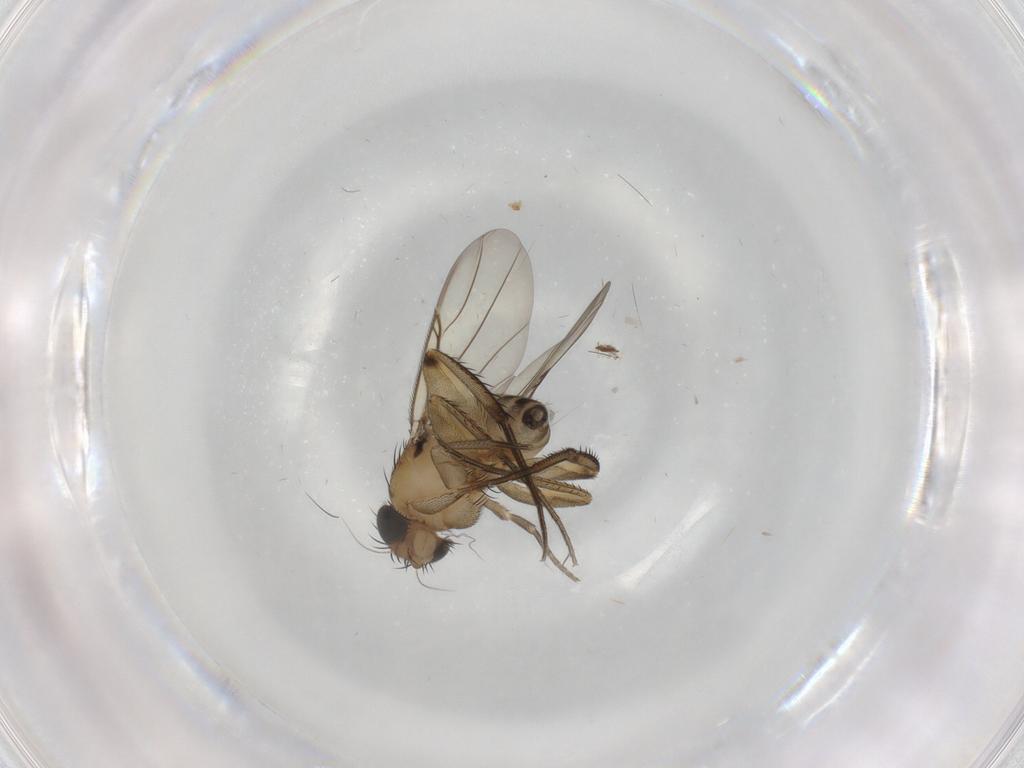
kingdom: Animalia
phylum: Arthropoda
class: Insecta
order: Diptera
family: Phoridae
